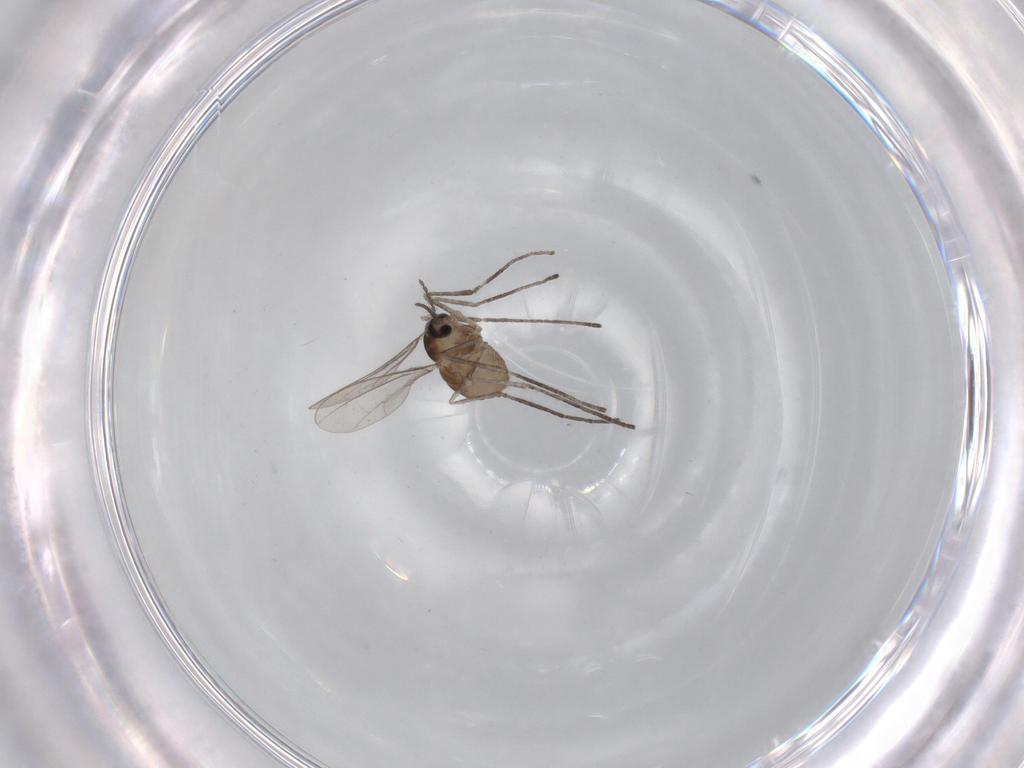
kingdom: Animalia
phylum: Arthropoda
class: Insecta
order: Diptera
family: Cecidomyiidae
